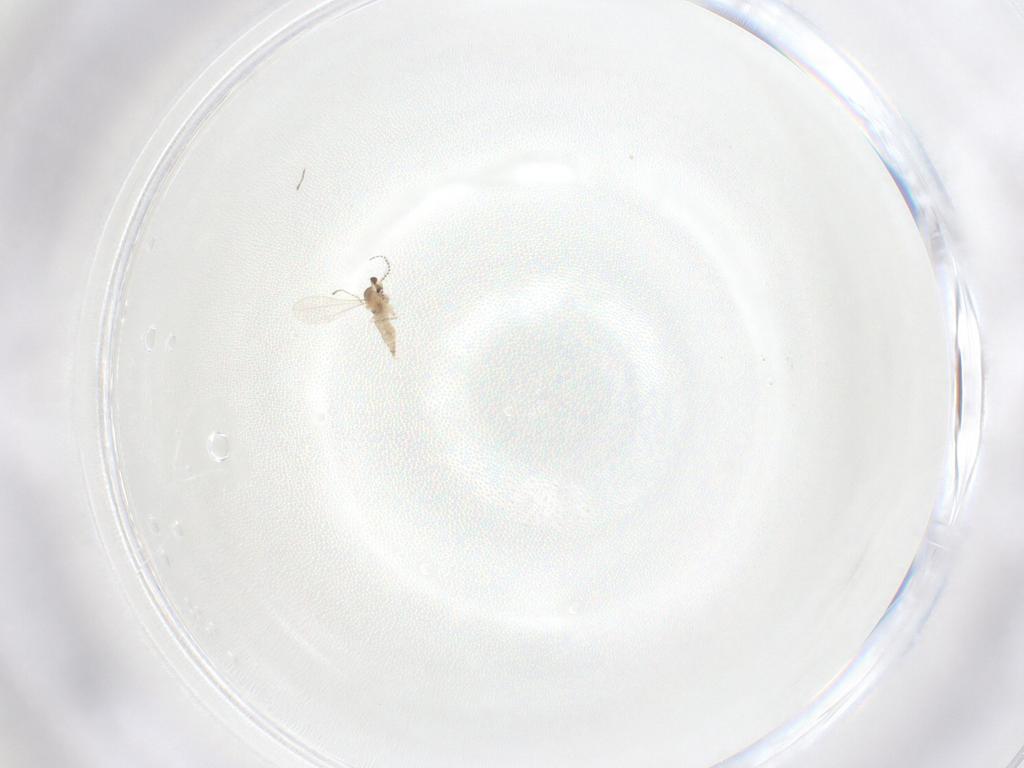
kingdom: Animalia
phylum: Arthropoda
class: Insecta
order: Diptera
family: Cecidomyiidae
